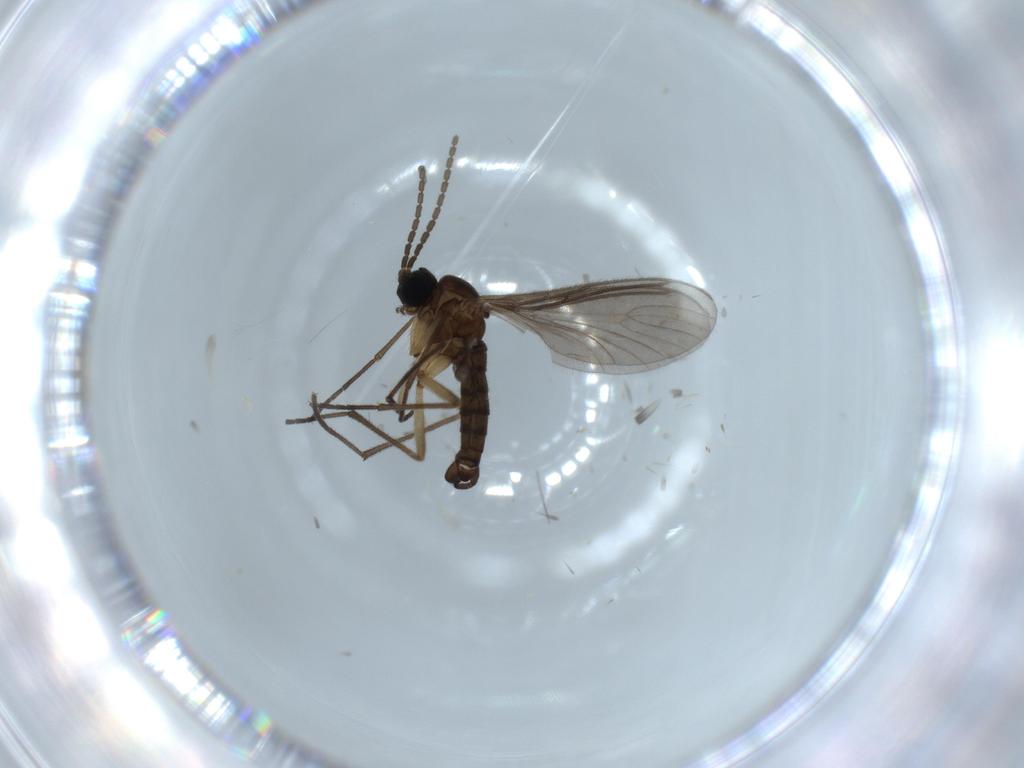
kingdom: Animalia
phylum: Arthropoda
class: Insecta
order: Diptera
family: Sciaridae
